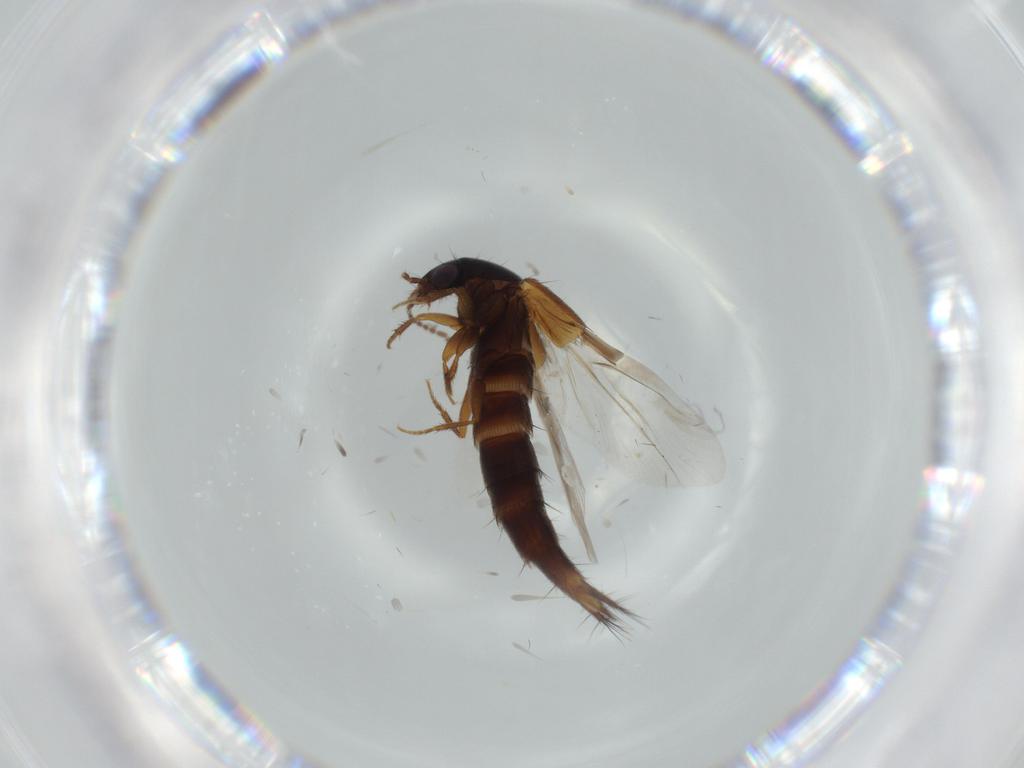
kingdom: Animalia
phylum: Arthropoda
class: Insecta
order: Coleoptera
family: Staphylinidae
